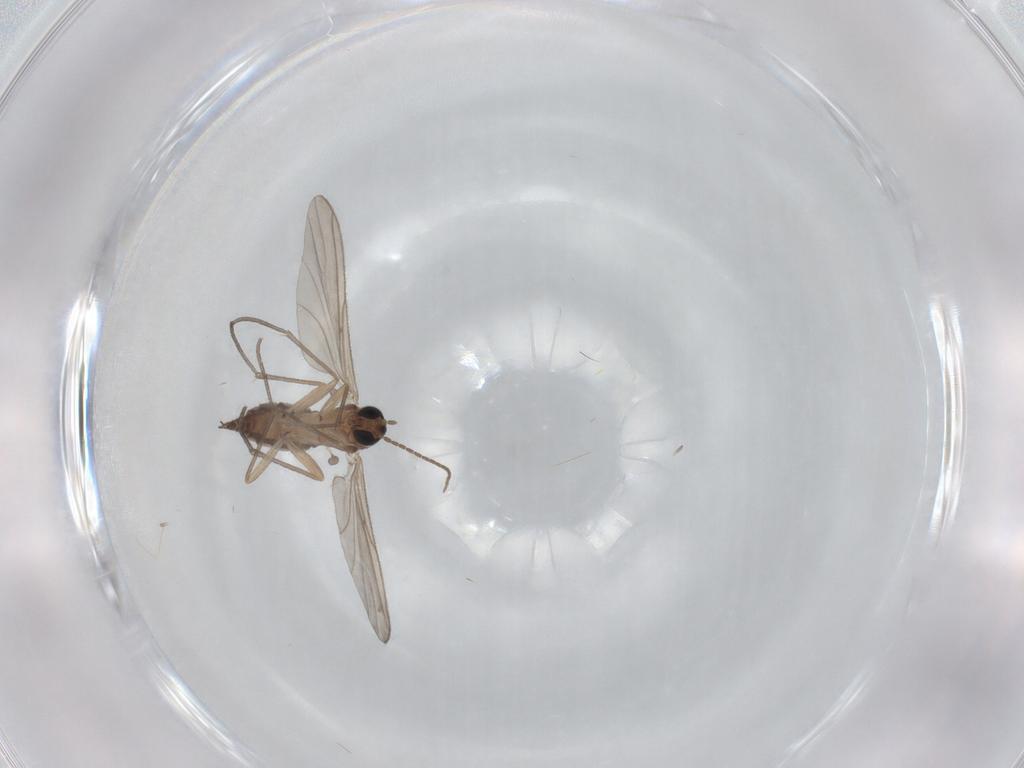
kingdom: Animalia
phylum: Arthropoda
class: Insecta
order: Diptera
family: Sciaridae
